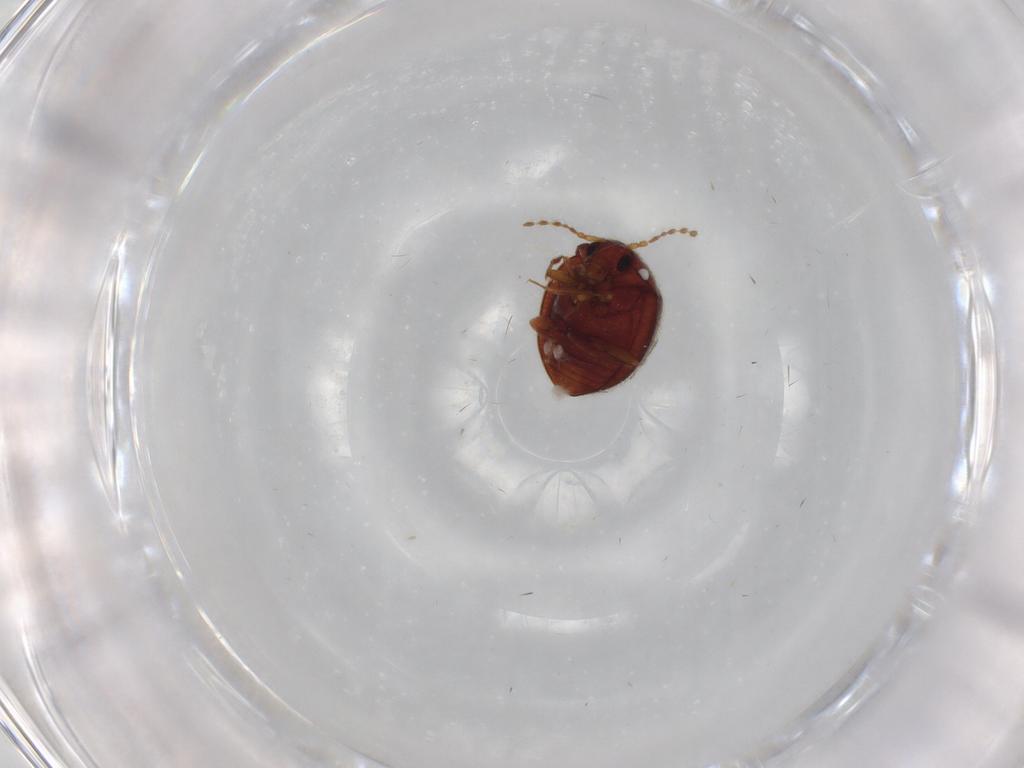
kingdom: Animalia
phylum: Arthropoda
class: Insecta
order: Coleoptera
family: Anamorphidae
